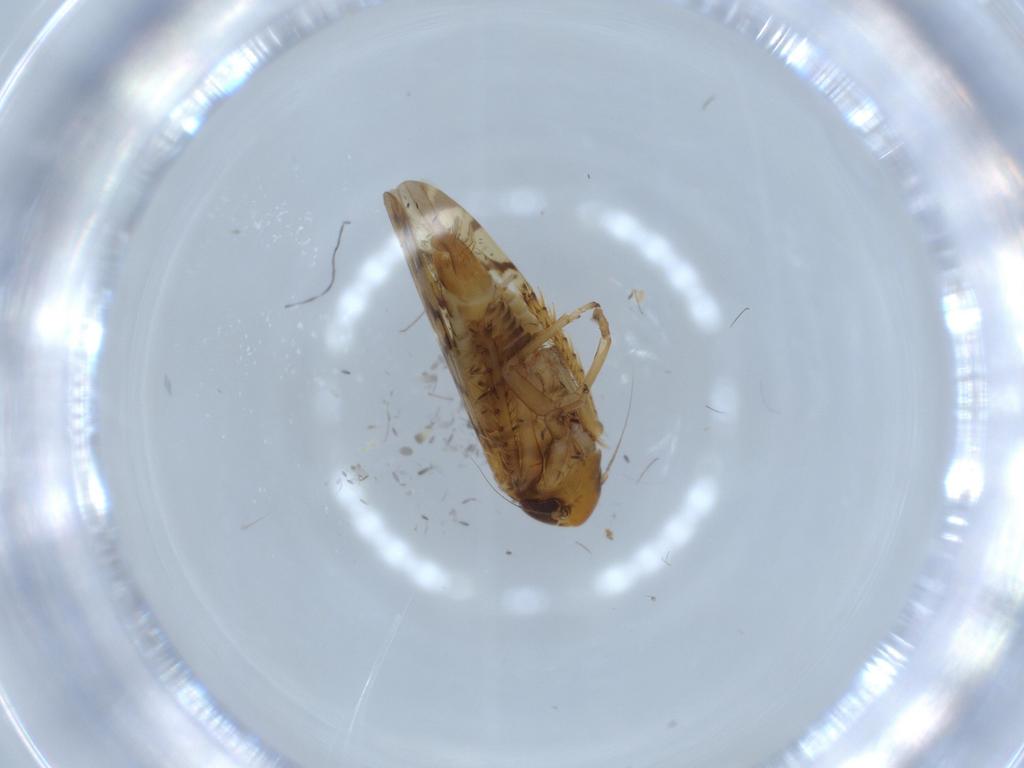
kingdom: Animalia
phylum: Arthropoda
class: Insecta
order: Hemiptera
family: Cicadellidae
